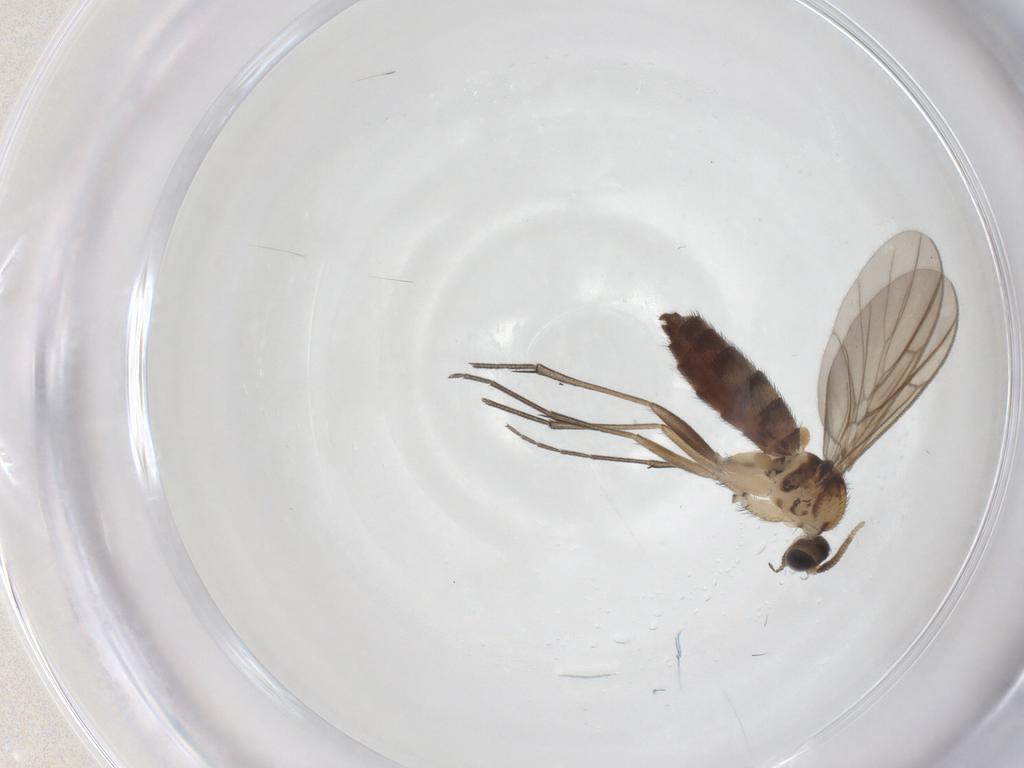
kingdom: Animalia
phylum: Arthropoda
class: Insecta
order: Diptera
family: Keroplatidae
